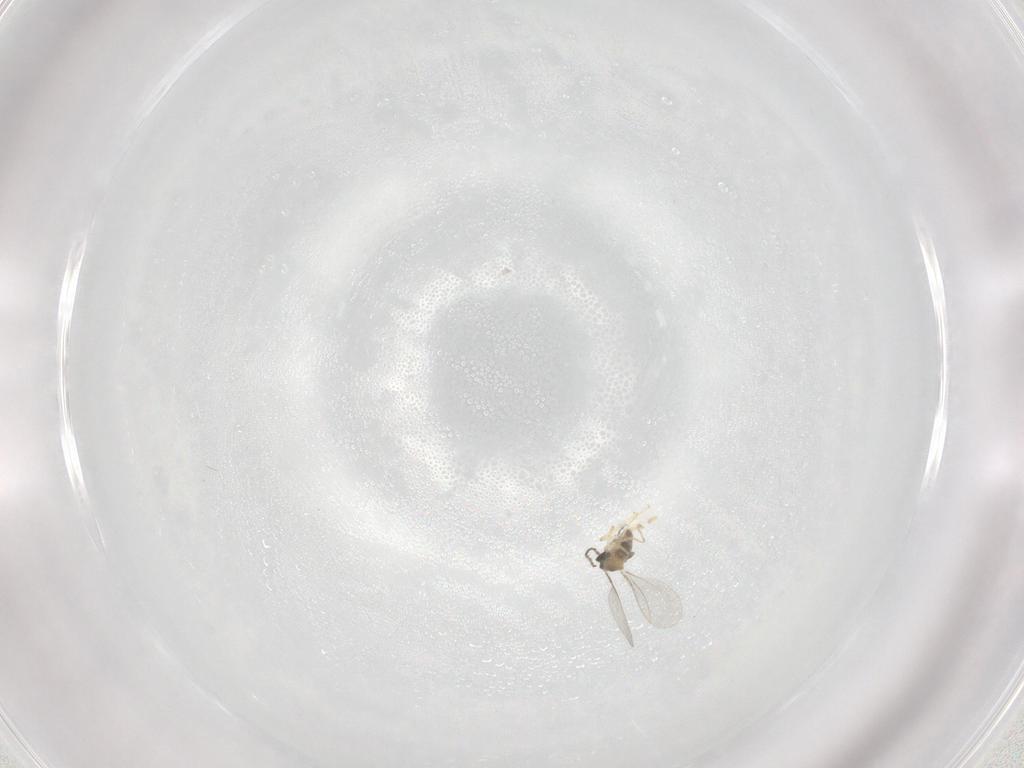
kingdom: Animalia
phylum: Arthropoda
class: Insecta
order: Diptera
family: Cecidomyiidae
